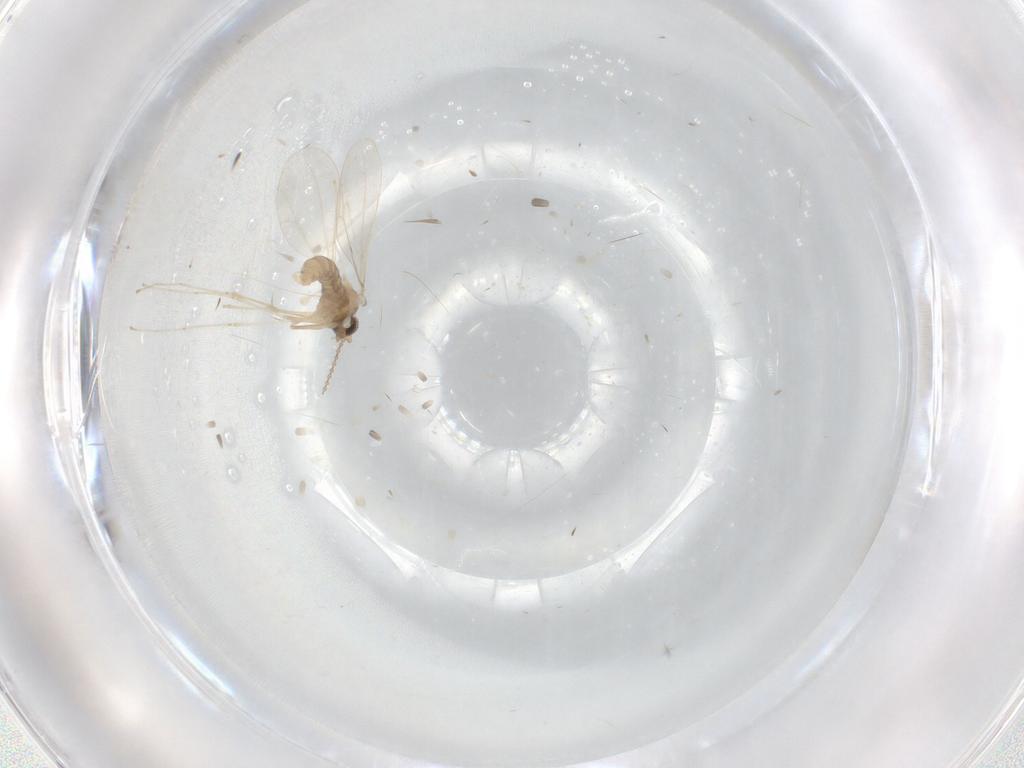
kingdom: Animalia
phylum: Arthropoda
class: Insecta
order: Diptera
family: Cecidomyiidae
